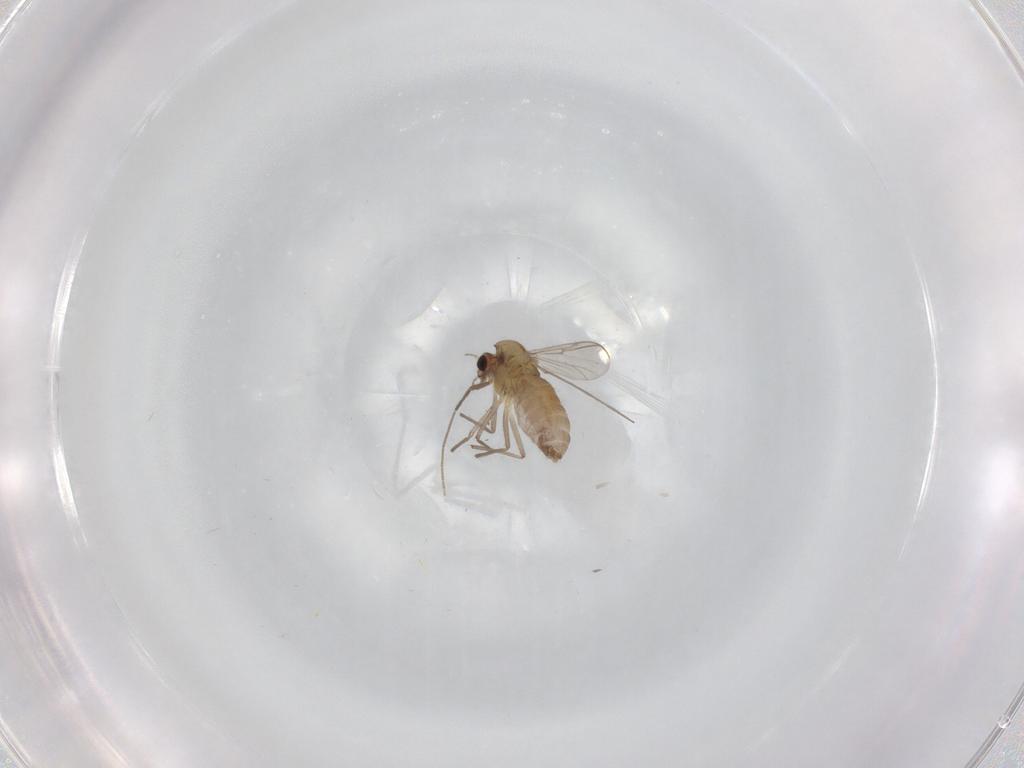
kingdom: Animalia
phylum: Arthropoda
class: Insecta
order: Diptera
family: Chironomidae
